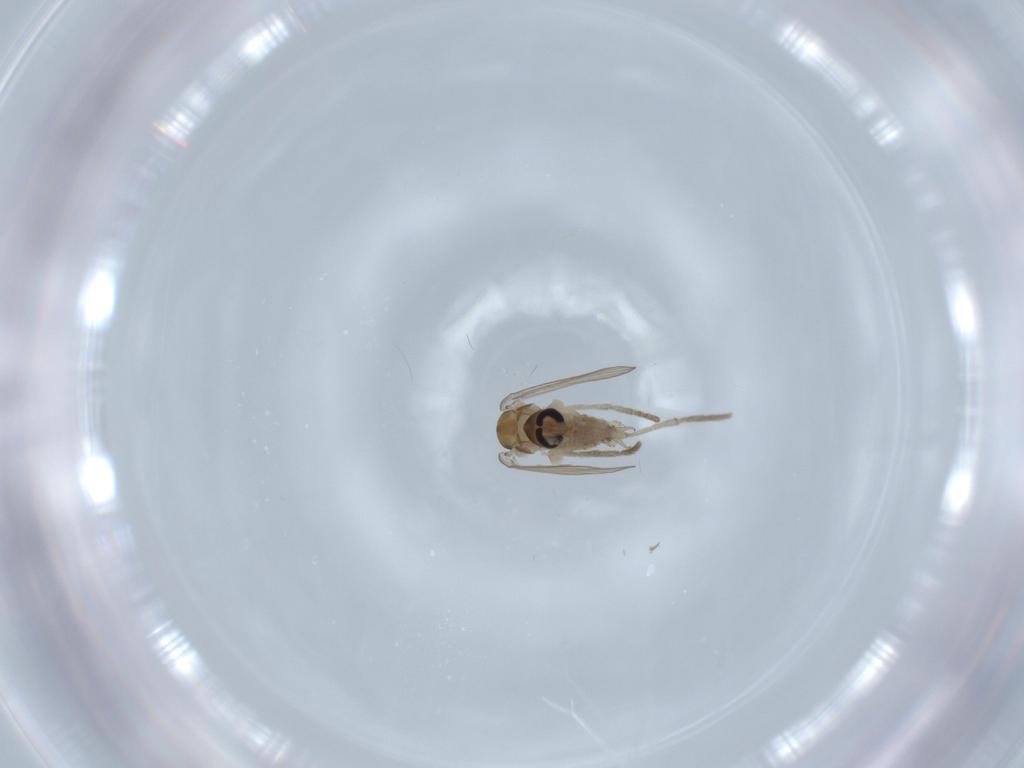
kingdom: Animalia
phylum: Arthropoda
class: Insecta
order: Diptera
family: Psychodidae
